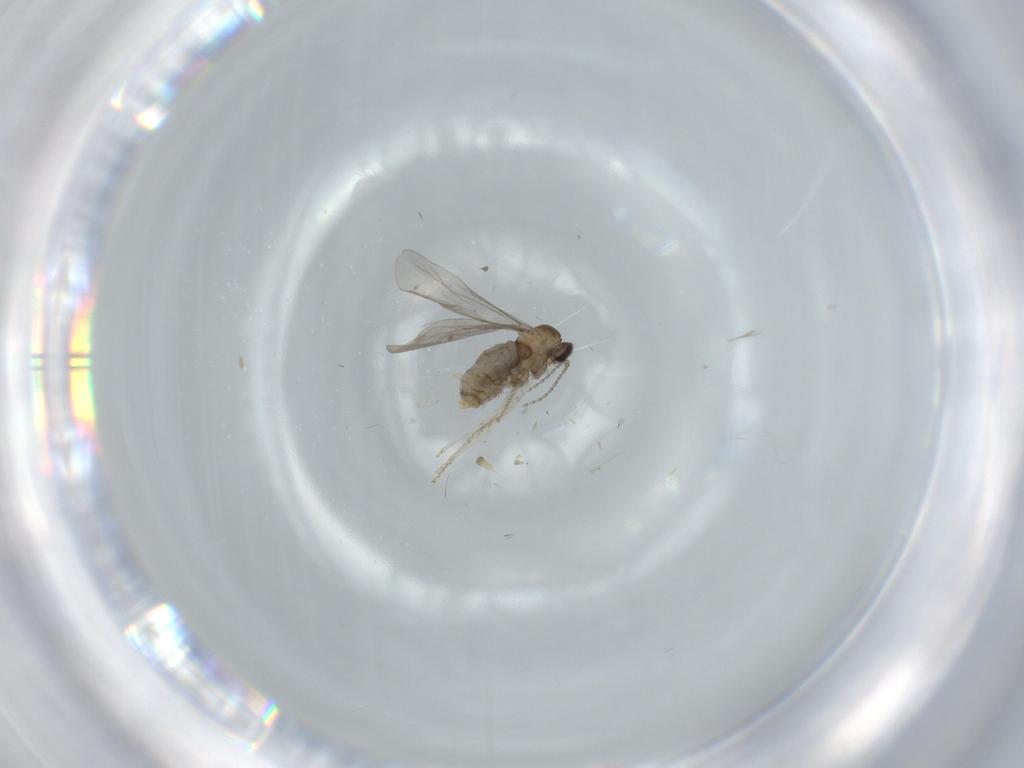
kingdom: Animalia
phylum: Arthropoda
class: Insecta
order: Diptera
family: Cecidomyiidae
